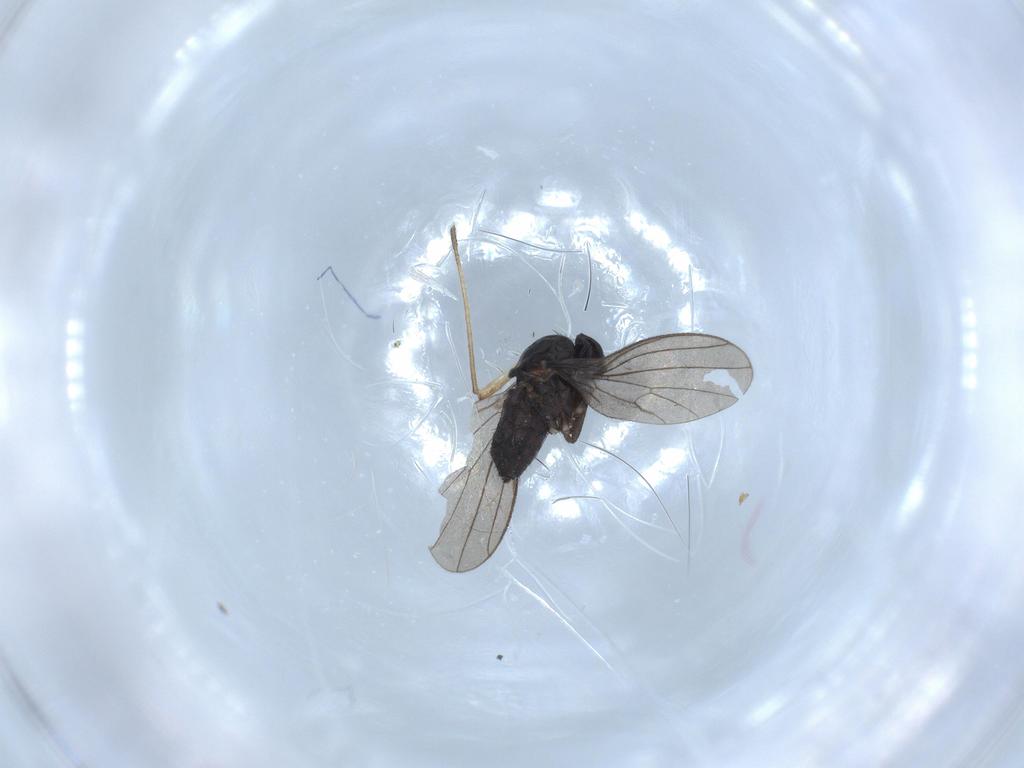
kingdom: Animalia
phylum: Arthropoda
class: Insecta
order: Diptera
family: Dolichopodidae
